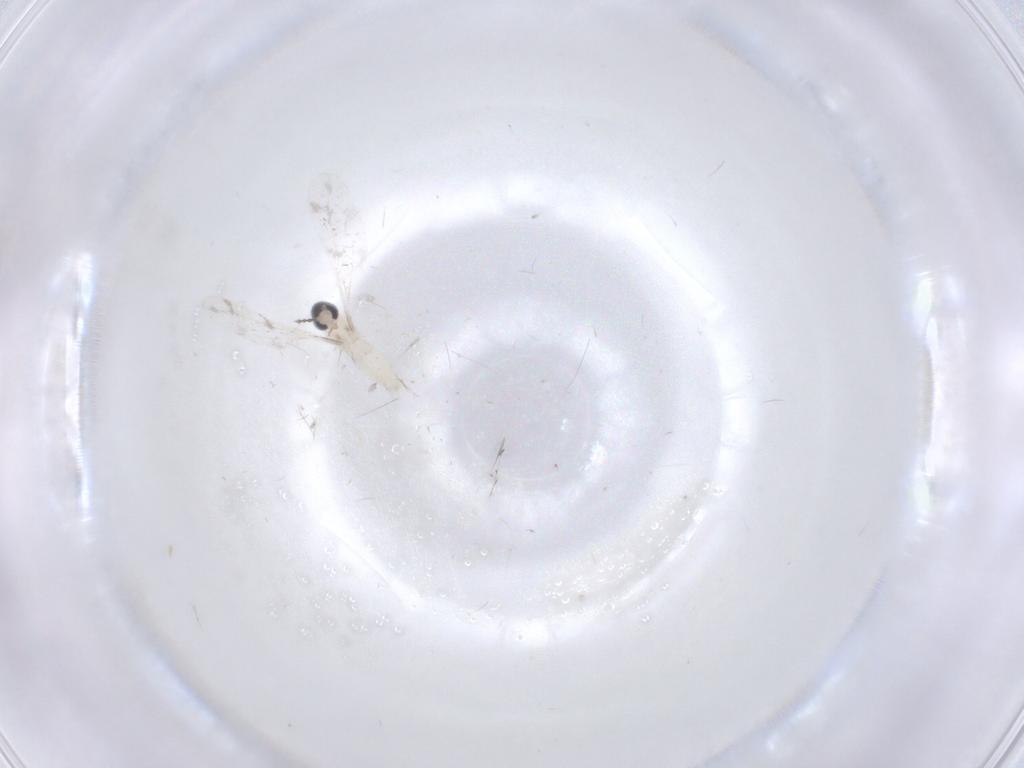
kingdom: Animalia
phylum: Arthropoda
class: Insecta
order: Diptera
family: Cecidomyiidae
